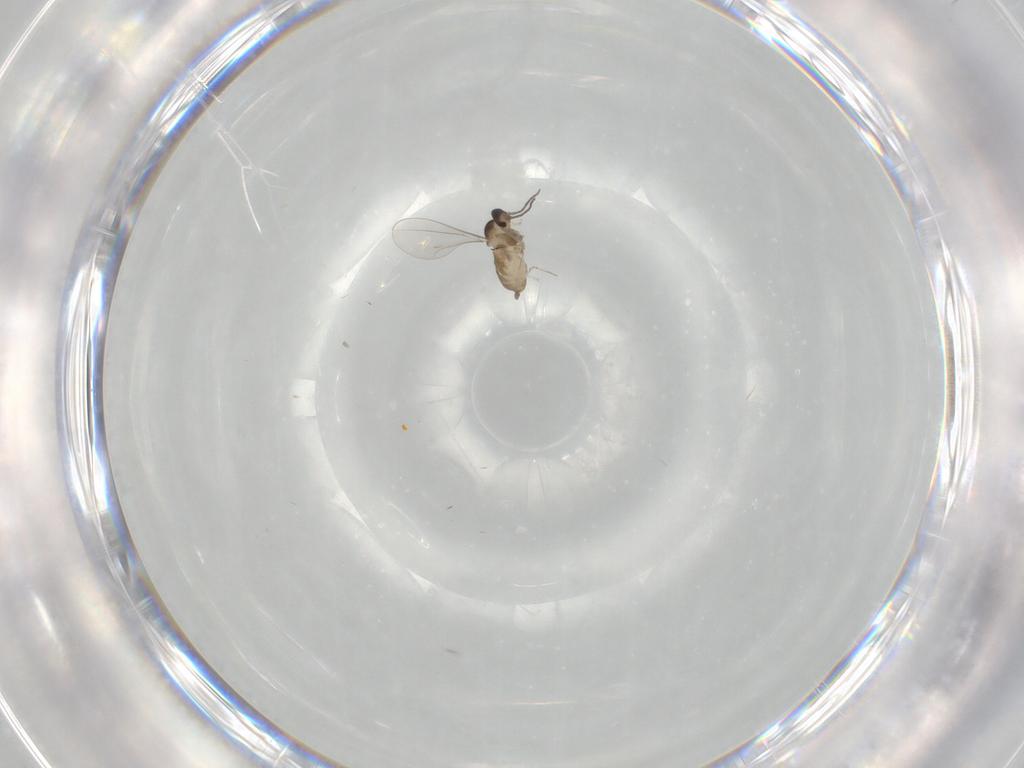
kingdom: Animalia
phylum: Arthropoda
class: Insecta
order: Diptera
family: Cecidomyiidae
